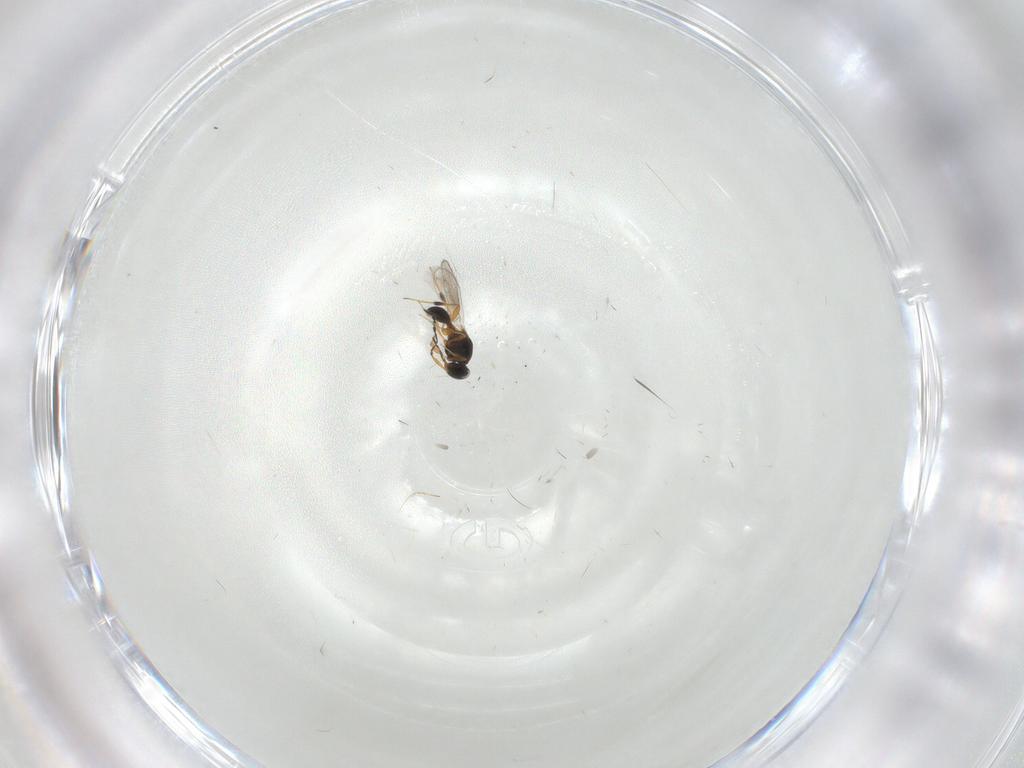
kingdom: Animalia
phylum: Arthropoda
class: Insecta
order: Hymenoptera
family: Platygastridae
